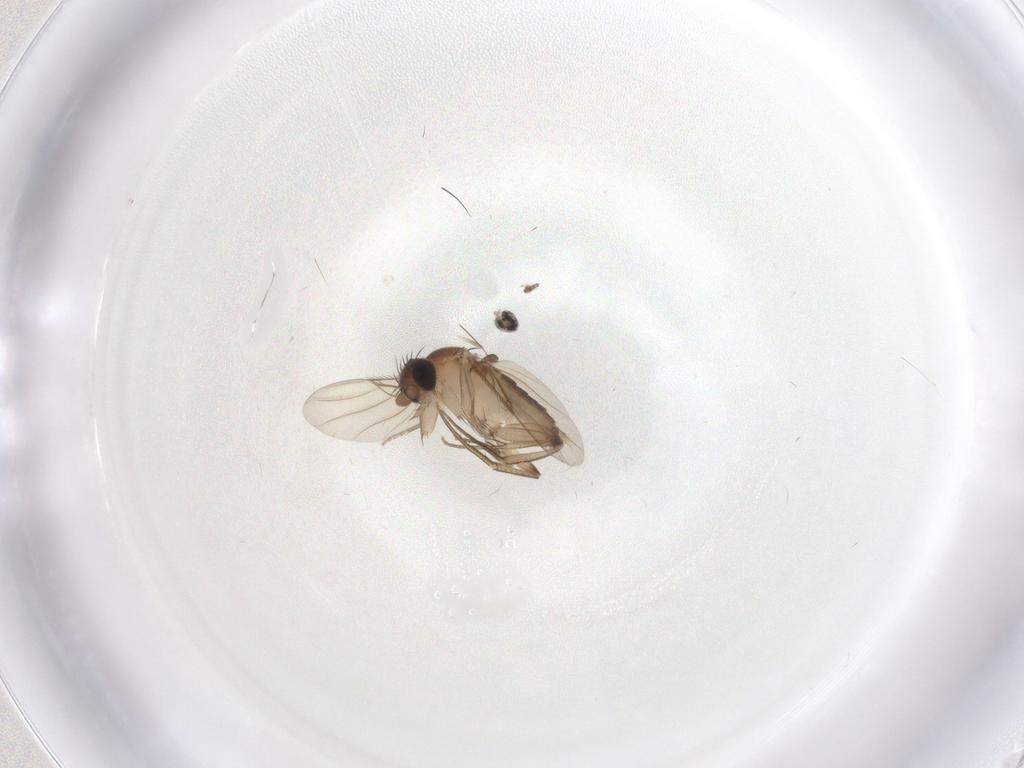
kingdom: Animalia
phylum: Arthropoda
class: Insecta
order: Diptera
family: Phoridae
